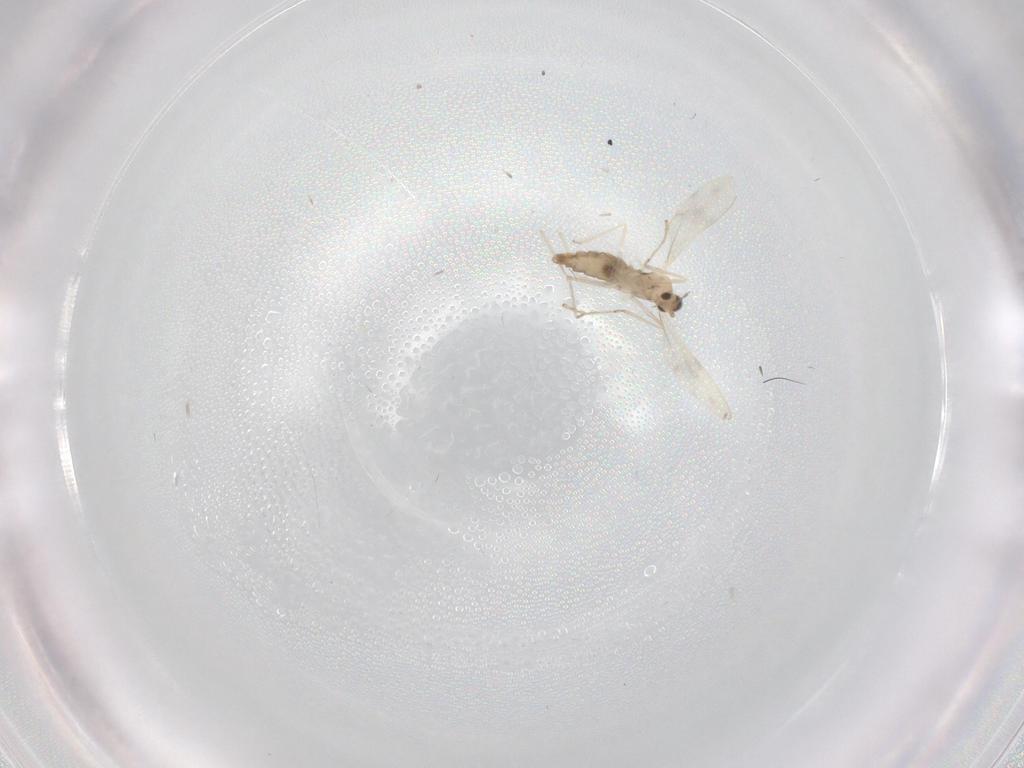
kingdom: Animalia
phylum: Arthropoda
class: Insecta
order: Diptera
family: Cecidomyiidae
